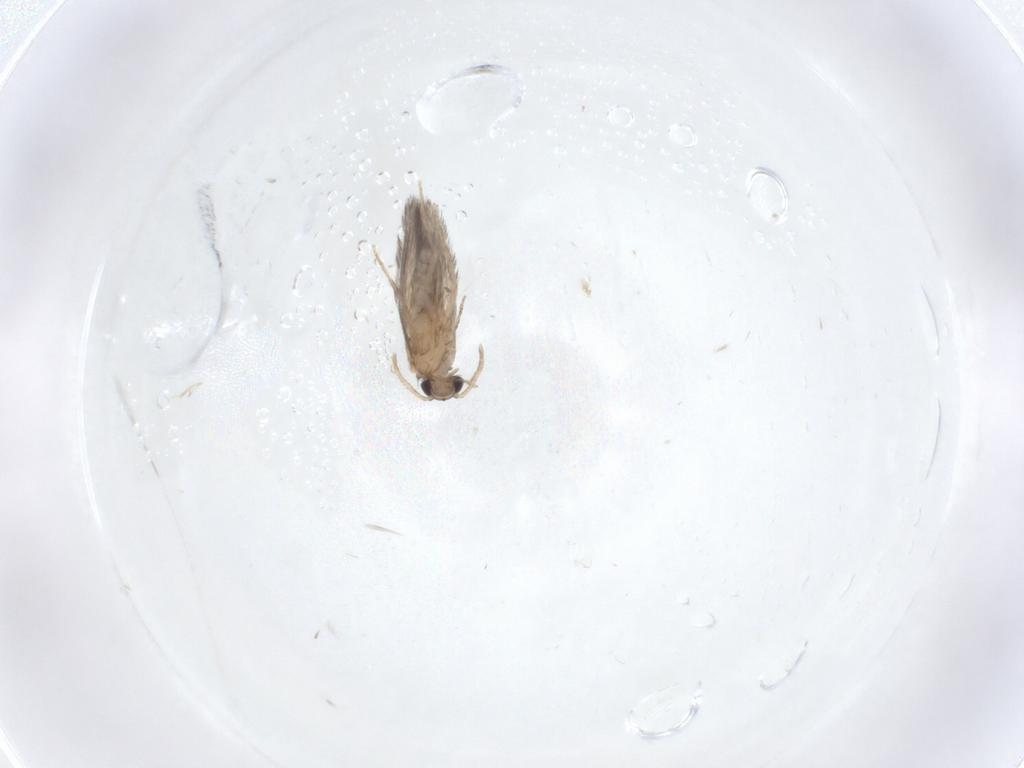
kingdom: Animalia
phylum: Arthropoda
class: Insecta
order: Trichoptera
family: Hydroptilidae
